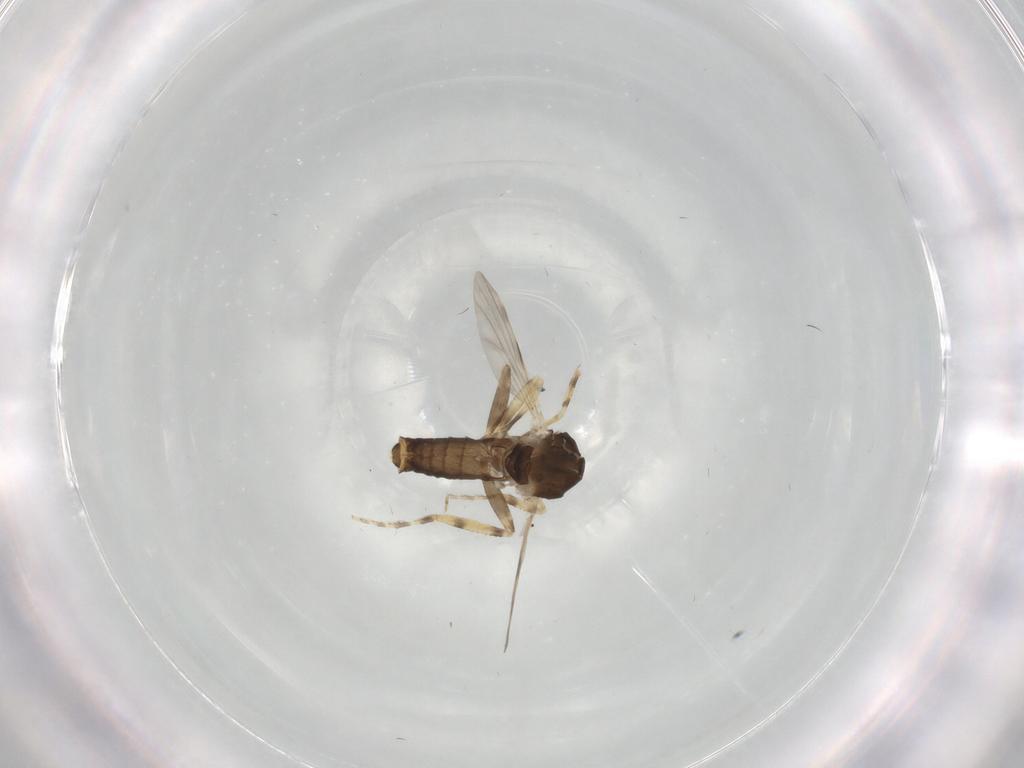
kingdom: Animalia
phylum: Arthropoda
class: Insecta
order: Diptera
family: Ceratopogonidae
